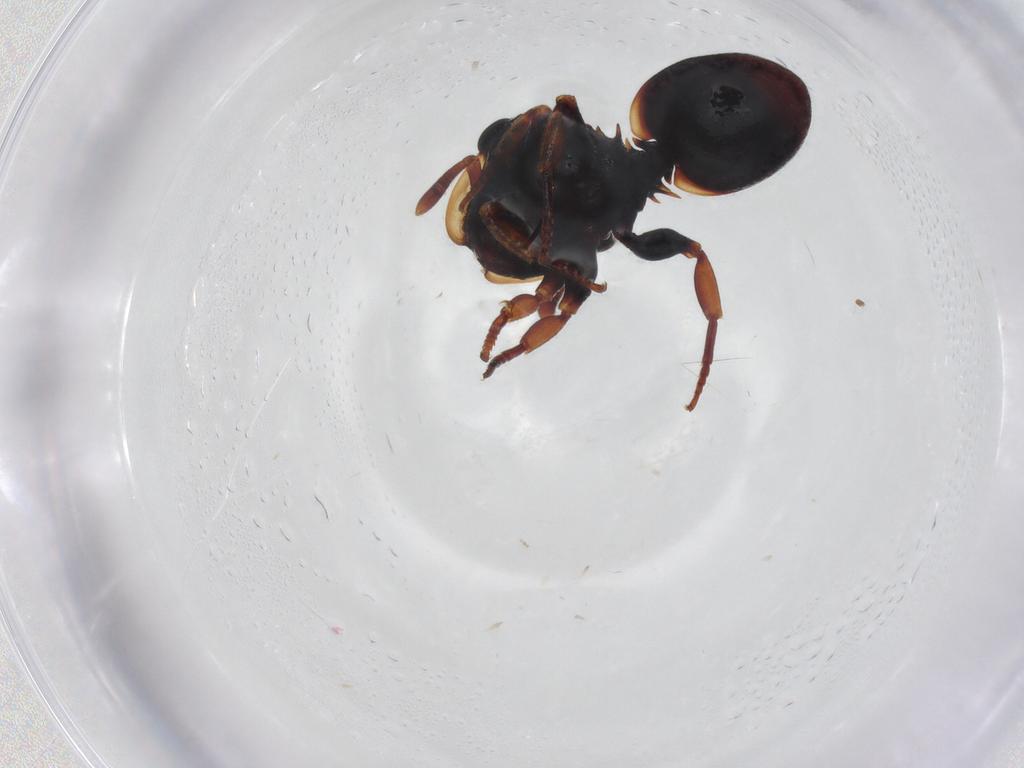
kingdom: Animalia
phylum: Arthropoda
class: Insecta
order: Hymenoptera
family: Formicidae
